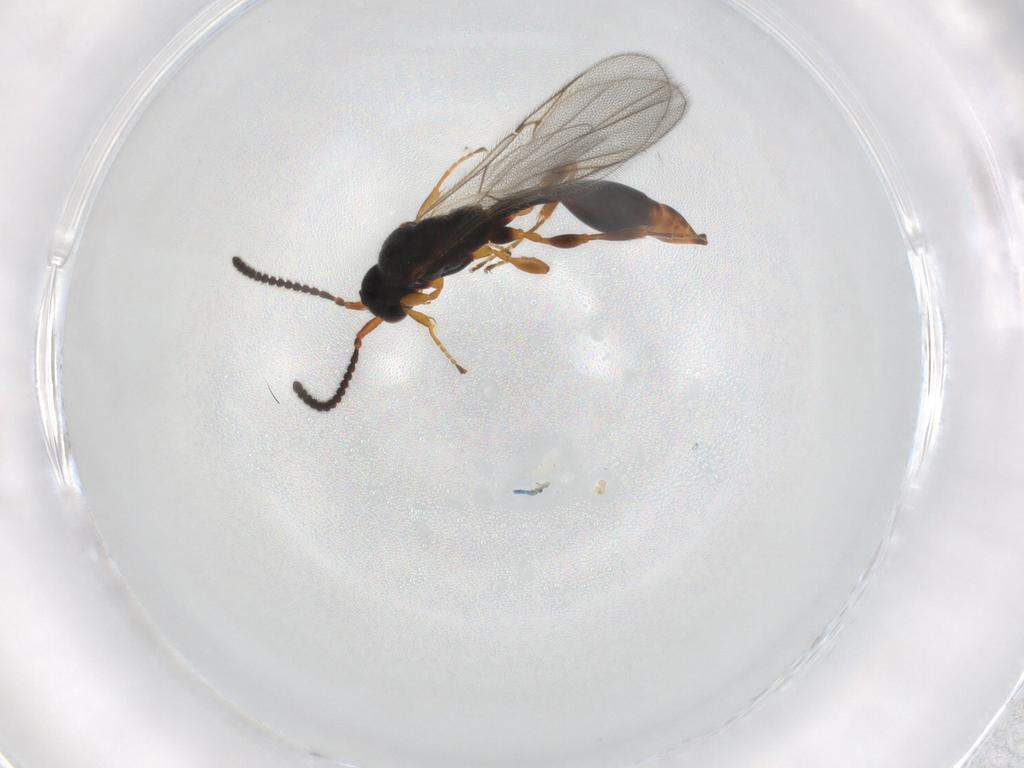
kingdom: Animalia
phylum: Arthropoda
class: Insecta
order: Hymenoptera
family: Diapriidae
